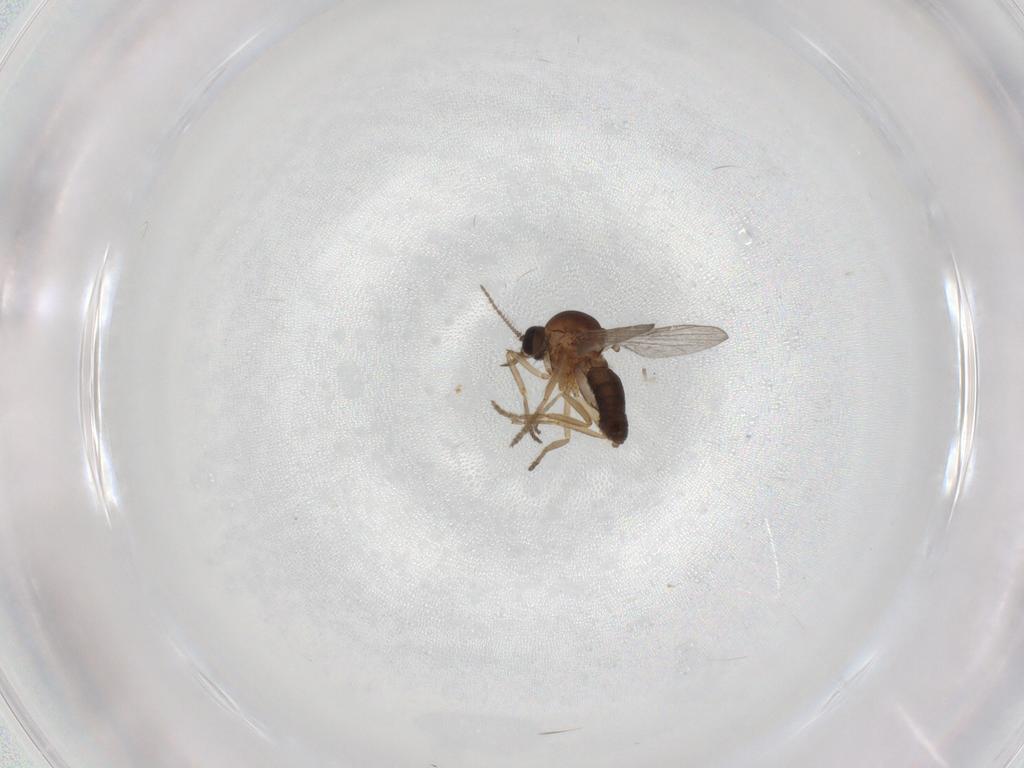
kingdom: Animalia
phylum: Arthropoda
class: Insecta
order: Diptera
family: Ceratopogonidae
